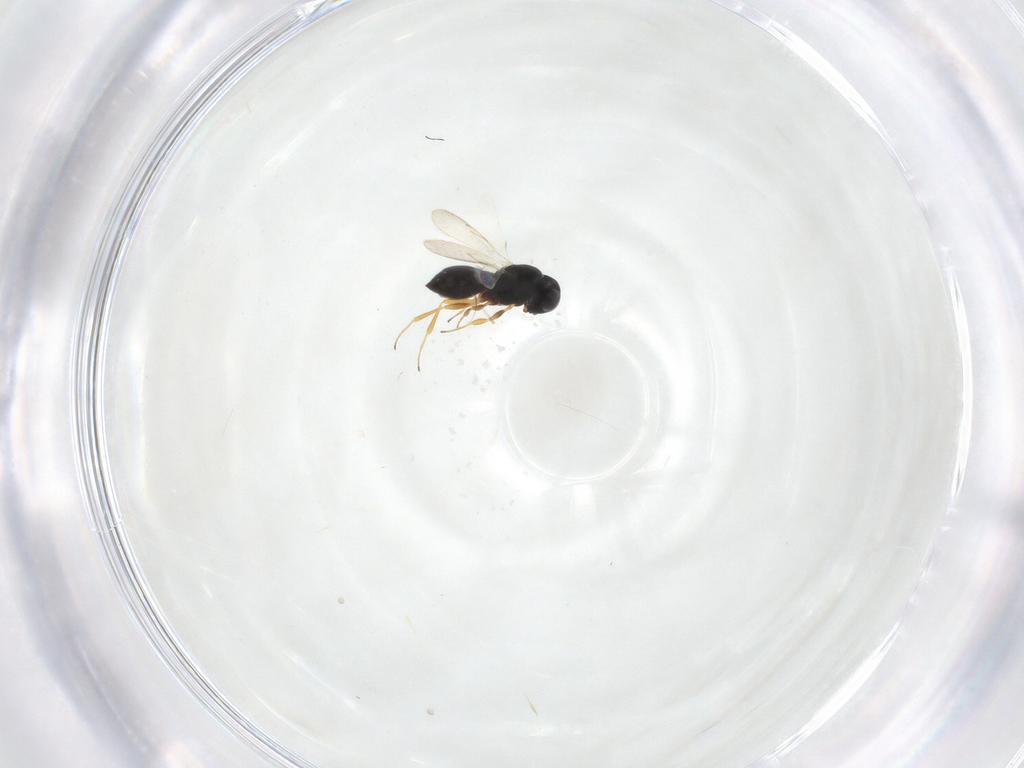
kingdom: Animalia
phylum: Arthropoda
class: Insecta
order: Hymenoptera
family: Scelionidae
